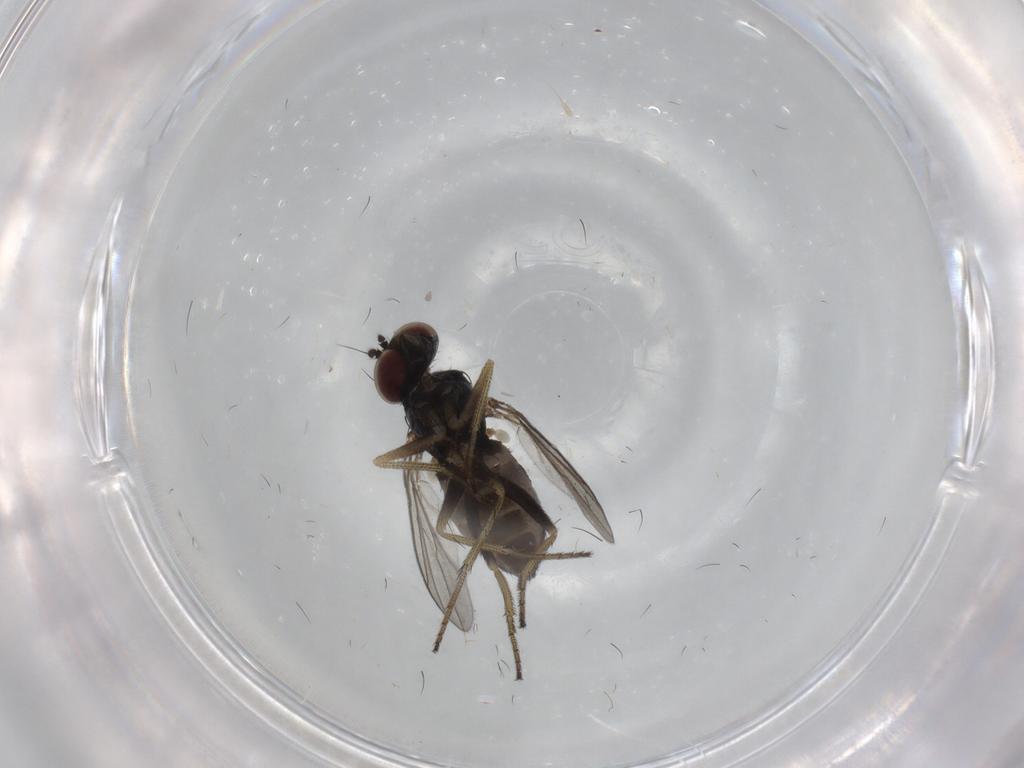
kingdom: Animalia
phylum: Arthropoda
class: Insecta
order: Diptera
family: Dolichopodidae
